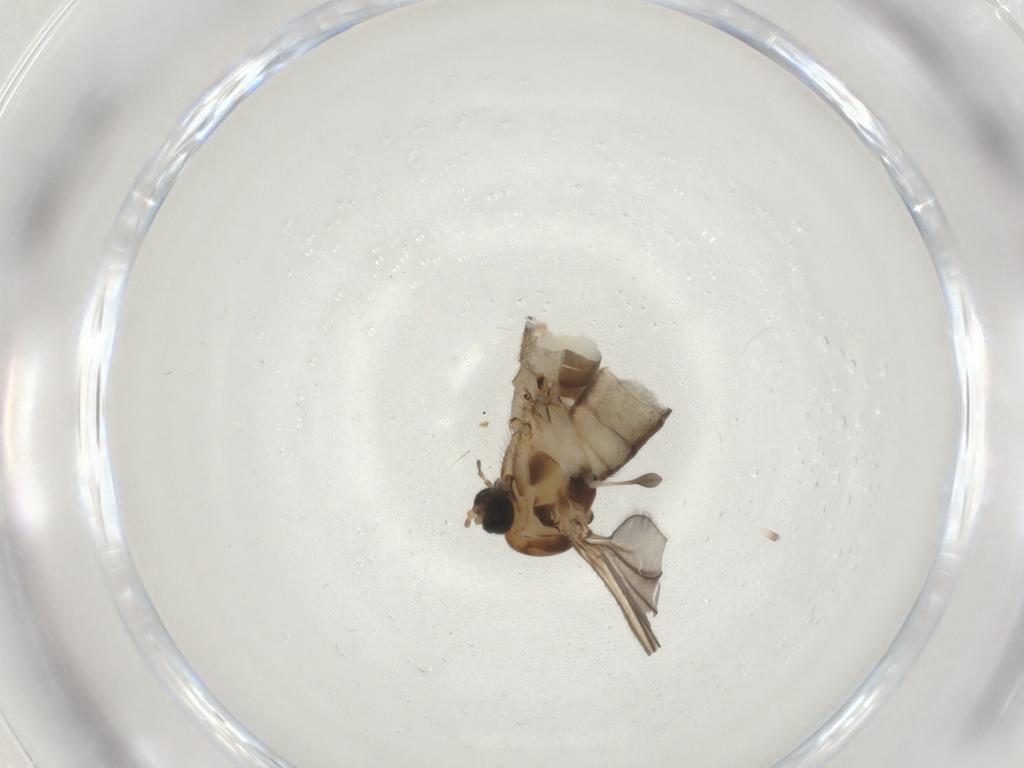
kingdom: Animalia
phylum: Arthropoda
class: Insecta
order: Diptera
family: Sciaridae
